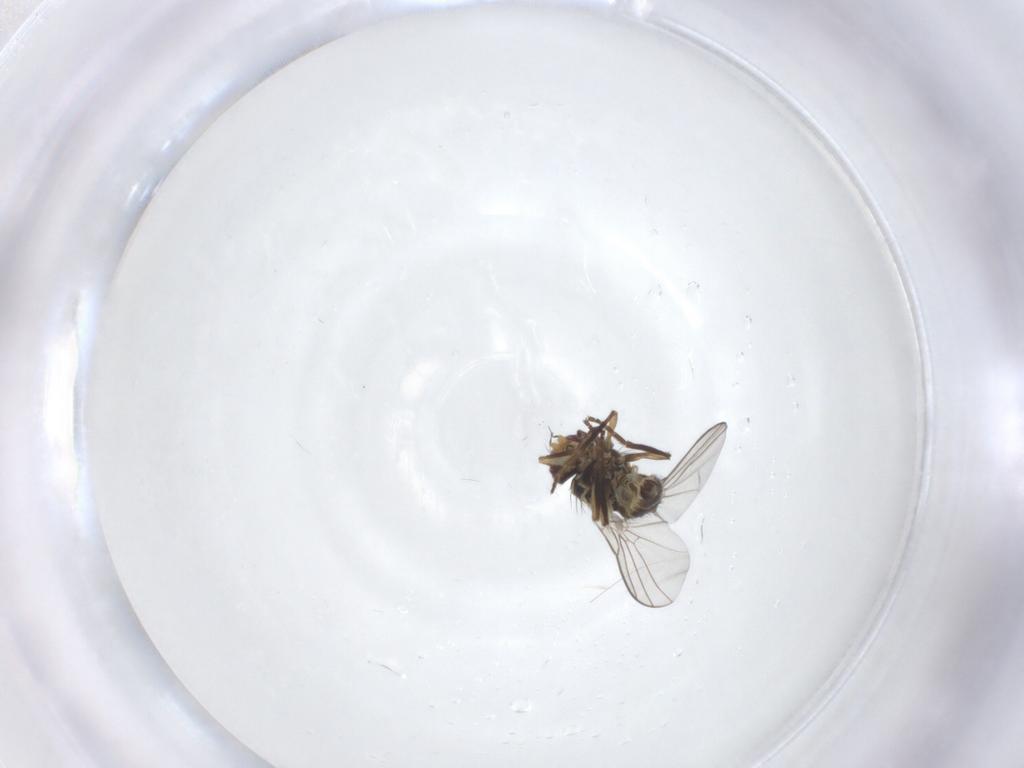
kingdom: Animalia
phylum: Arthropoda
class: Insecta
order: Diptera
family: Agromyzidae
